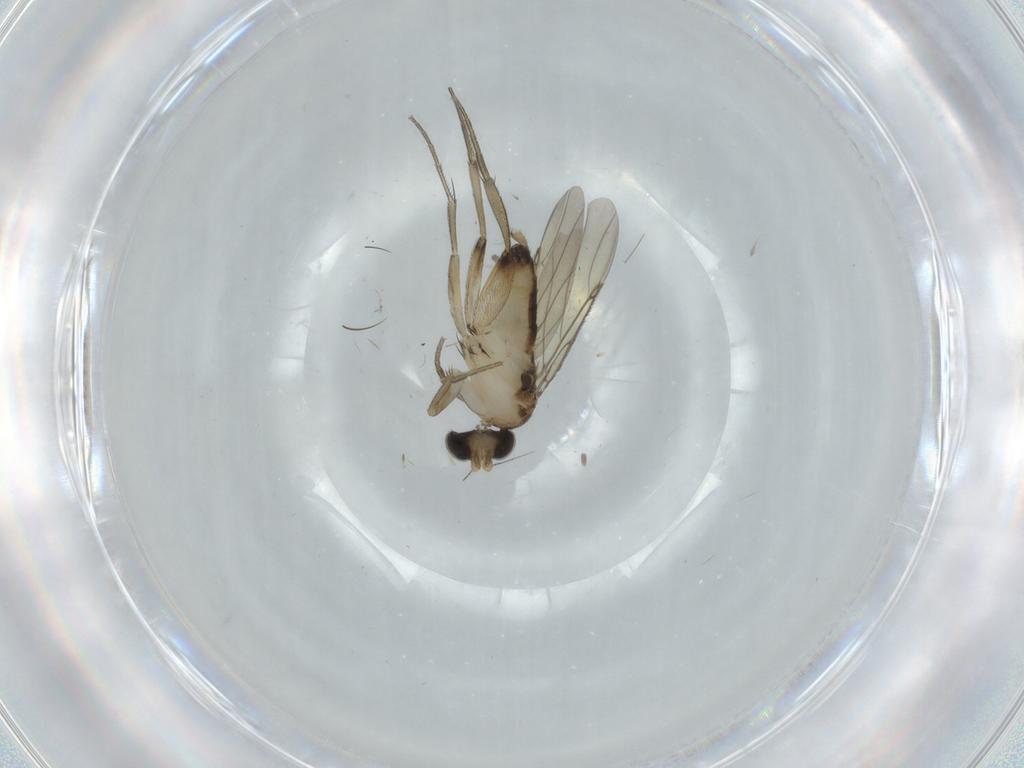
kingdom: Animalia
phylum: Arthropoda
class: Insecta
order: Diptera
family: Phoridae
